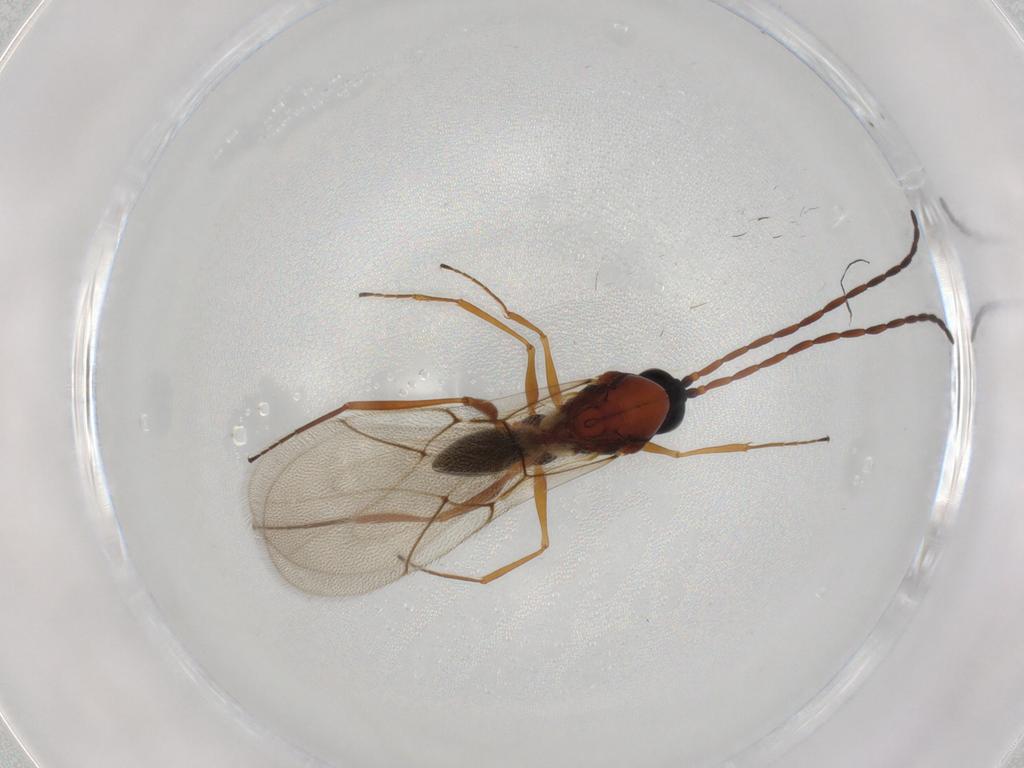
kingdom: Animalia
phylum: Arthropoda
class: Insecta
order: Hymenoptera
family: Figitidae
